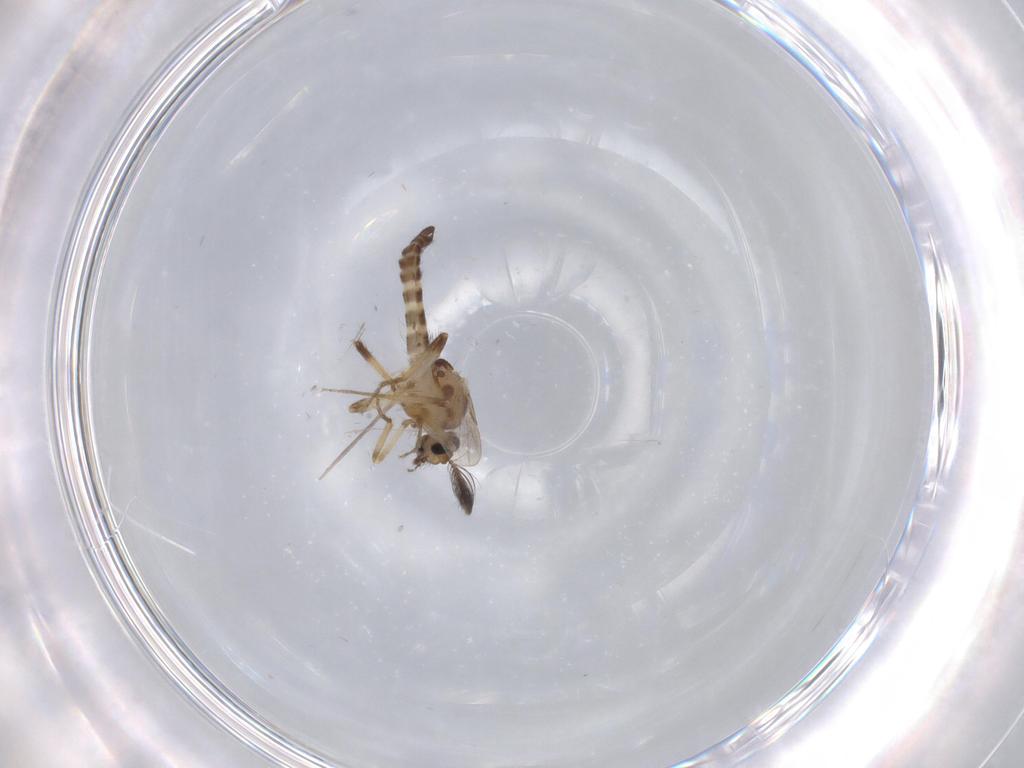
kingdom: Animalia
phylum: Arthropoda
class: Insecta
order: Diptera
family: Ceratopogonidae
